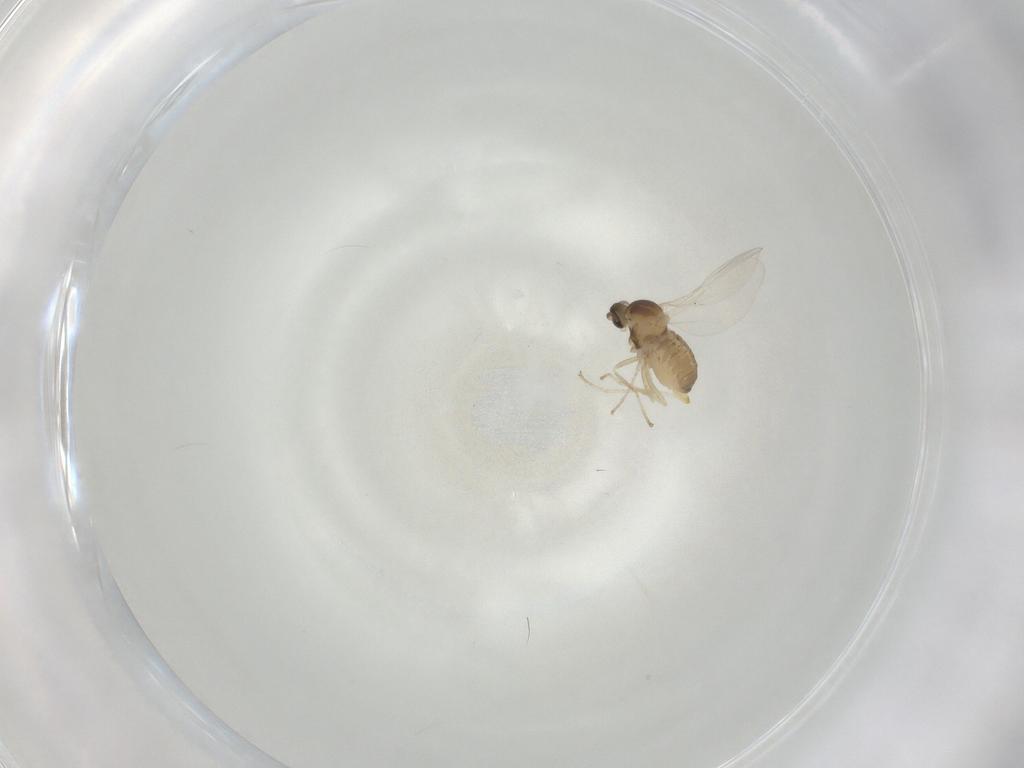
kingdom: Animalia
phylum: Arthropoda
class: Insecta
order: Diptera
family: Cecidomyiidae
